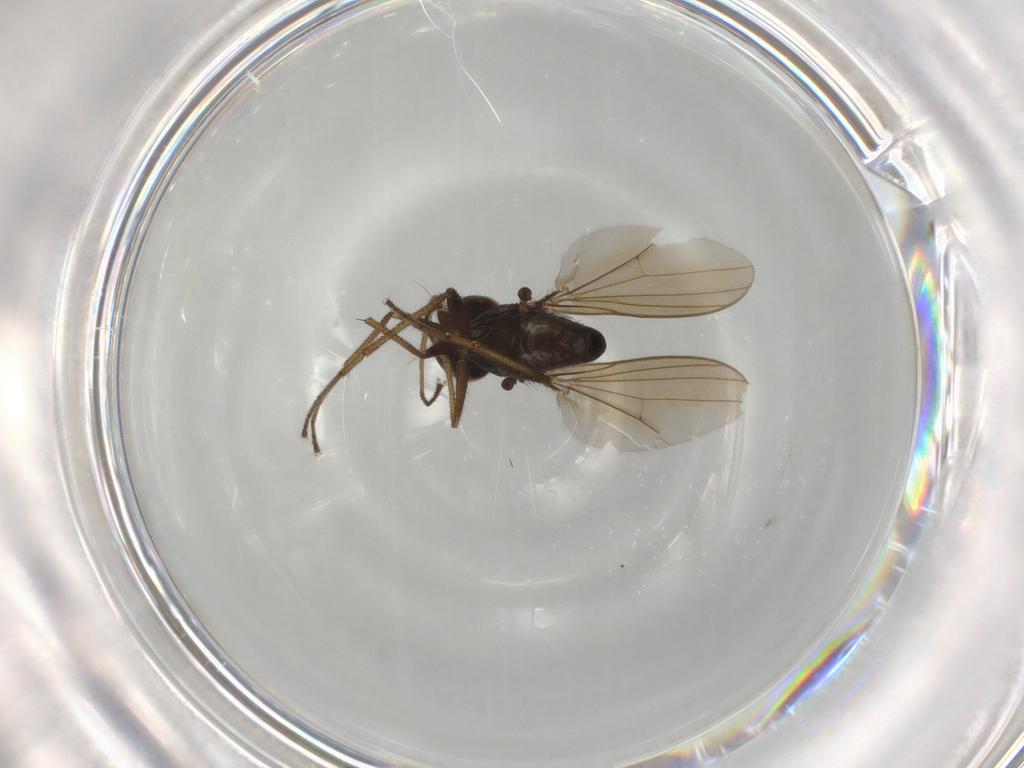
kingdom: Animalia
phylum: Arthropoda
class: Insecta
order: Diptera
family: Dolichopodidae
